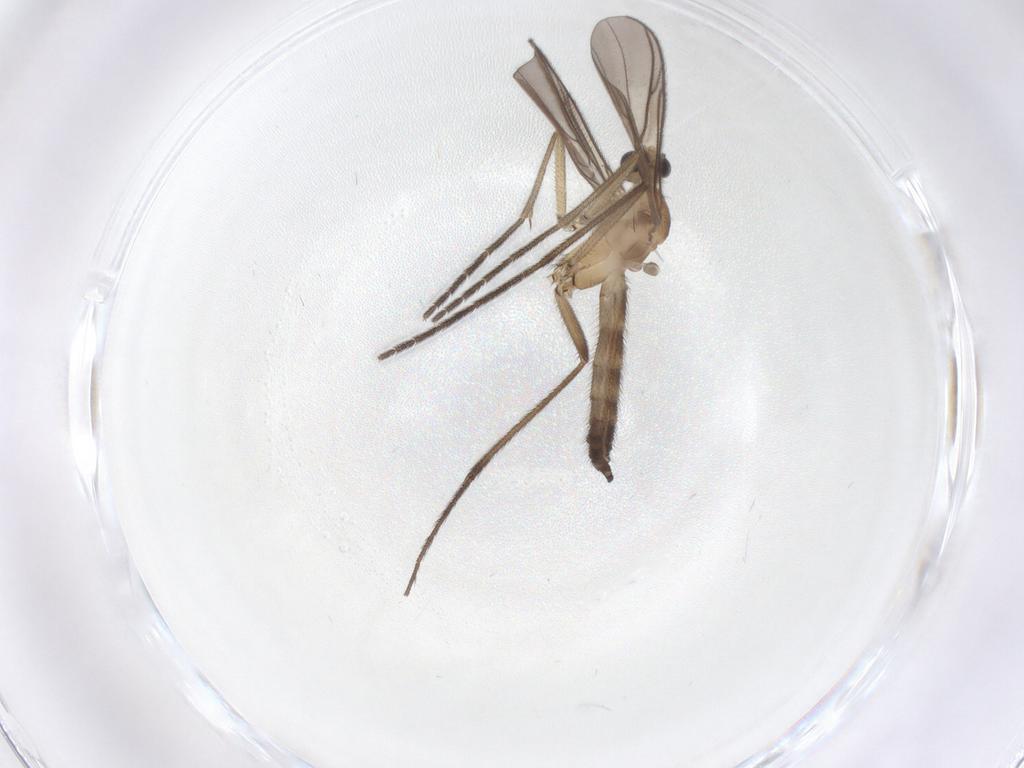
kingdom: Animalia
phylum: Arthropoda
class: Insecta
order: Diptera
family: Keroplatidae
